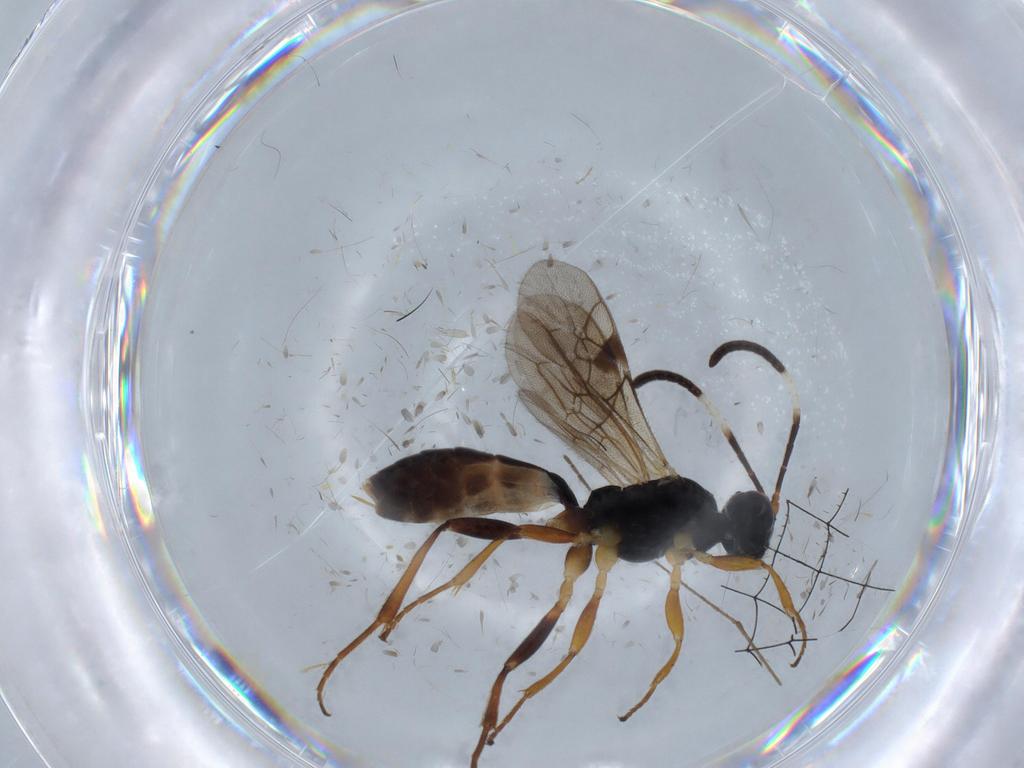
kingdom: Animalia
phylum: Arthropoda
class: Insecta
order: Hymenoptera
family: Ichneumonidae
